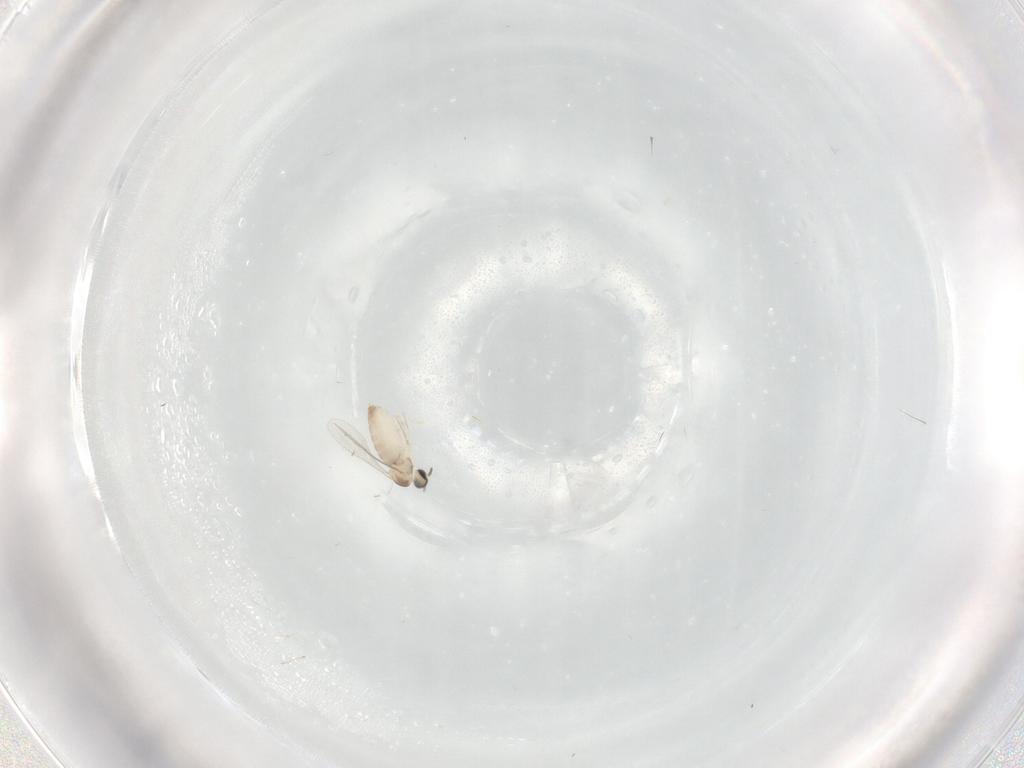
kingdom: Animalia
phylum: Arthropoda
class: Insecta
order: Diptera
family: Cecidomyiidae
